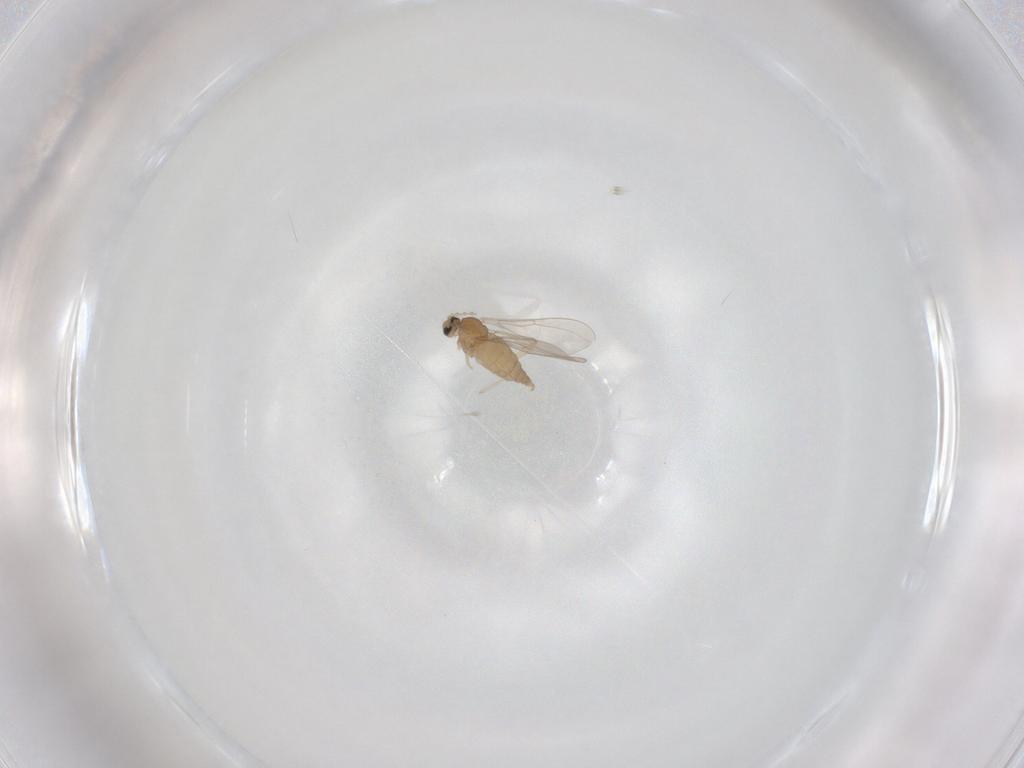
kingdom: Animalia
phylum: Arthropoda
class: Insecta
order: Diptera
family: Cecidomyiidae
